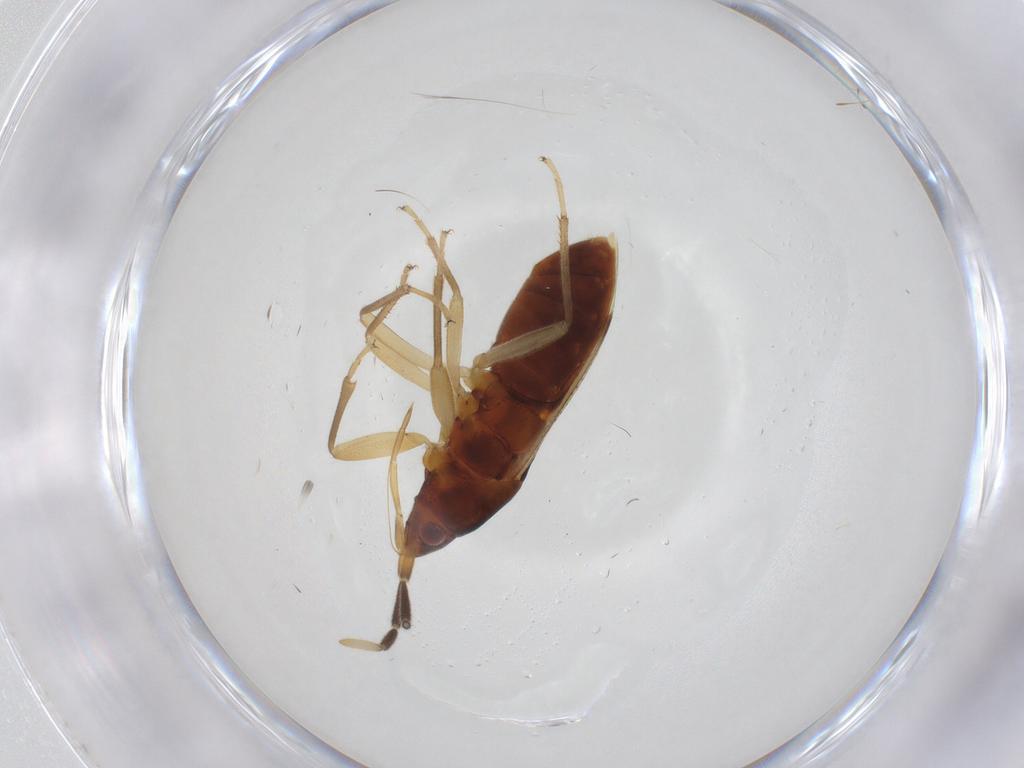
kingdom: Animalia
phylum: Arthropoda
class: Insecta
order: Hemiptera
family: Rhyparochromidae
